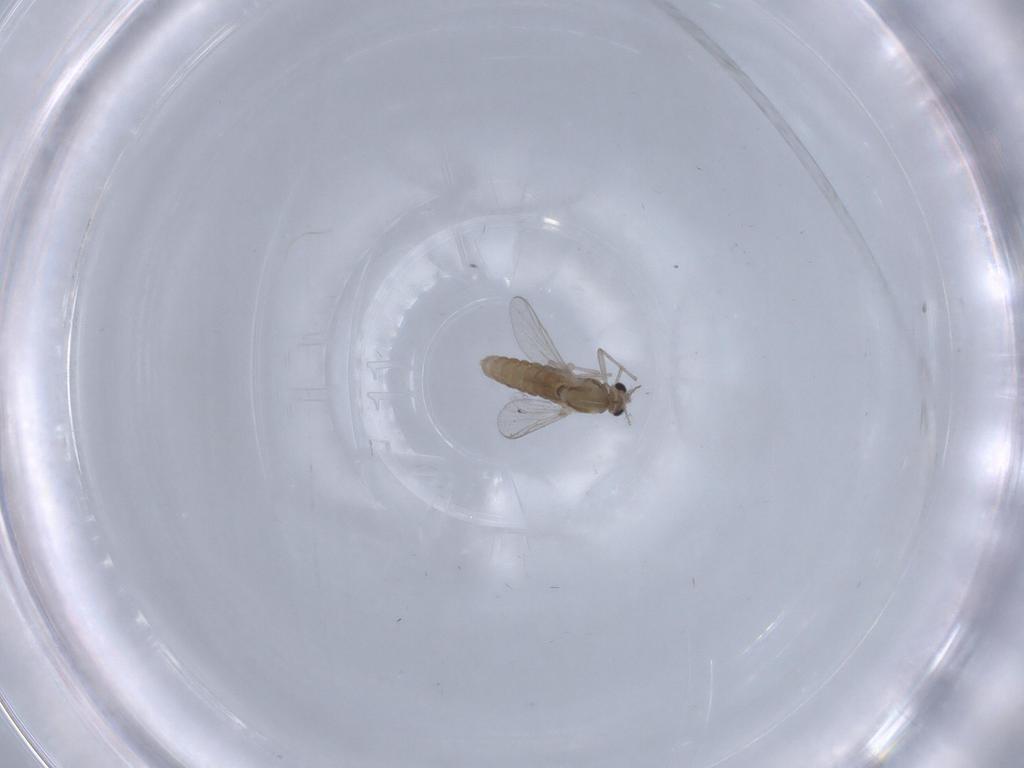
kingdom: Animalia
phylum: Arthropoda
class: Insecta
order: Diptera
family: Chironomidae
